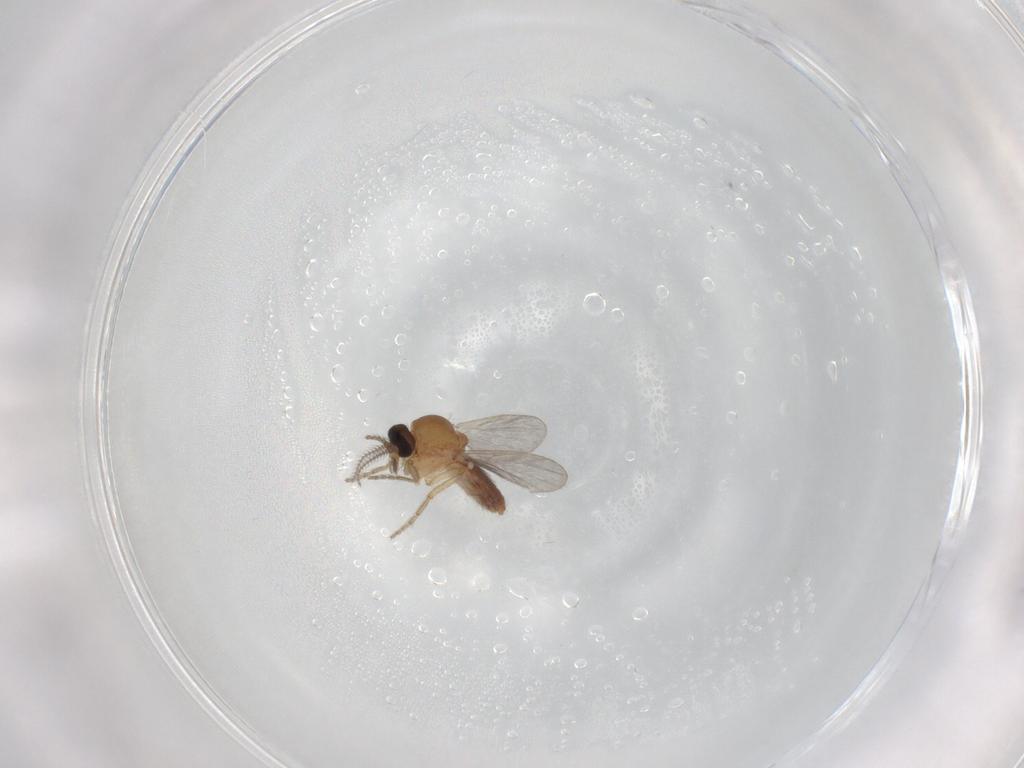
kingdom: Animalia
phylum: Arthropoda
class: Insecta
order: Diptera
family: Ceratopogonidae
